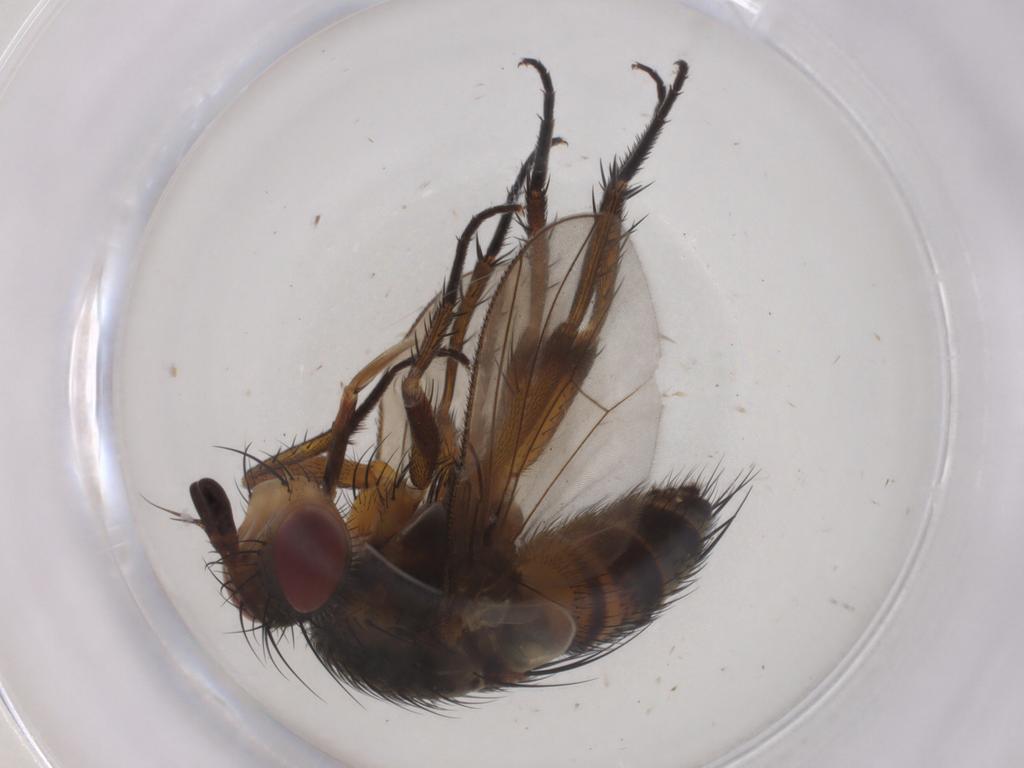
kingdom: Animalia
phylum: Arthropoda
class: Insecta
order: Diptera
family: Tachinidae
